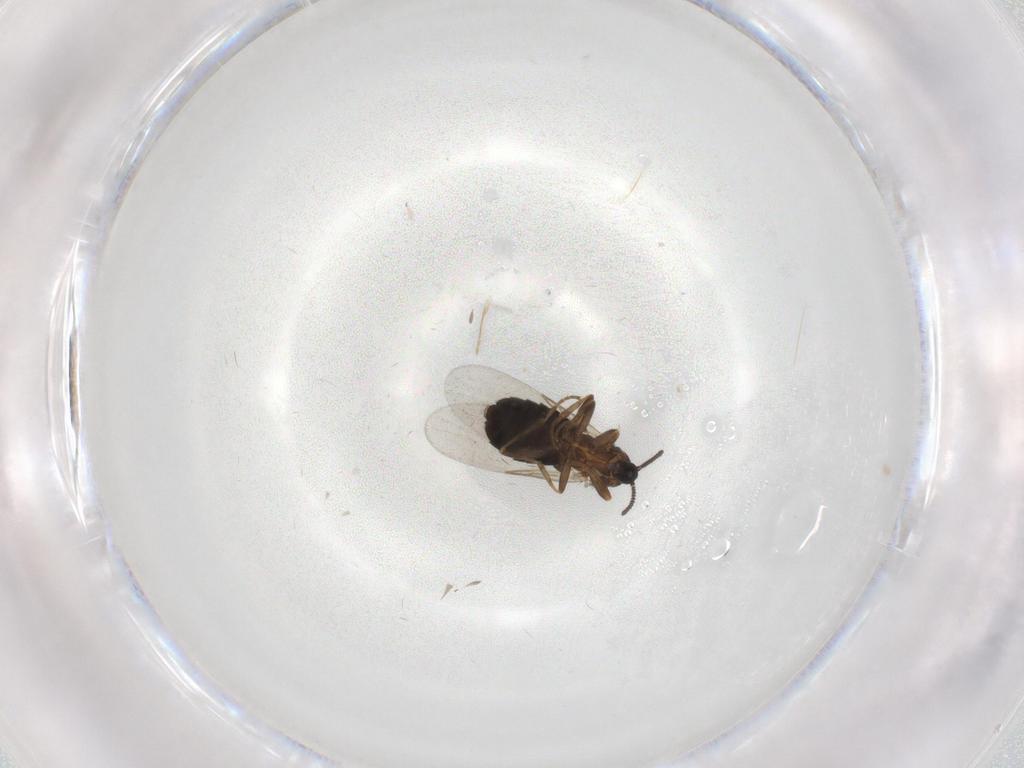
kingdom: Animalia
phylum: Arthropoda
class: Insecta
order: Diptera
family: Scatopsidae
